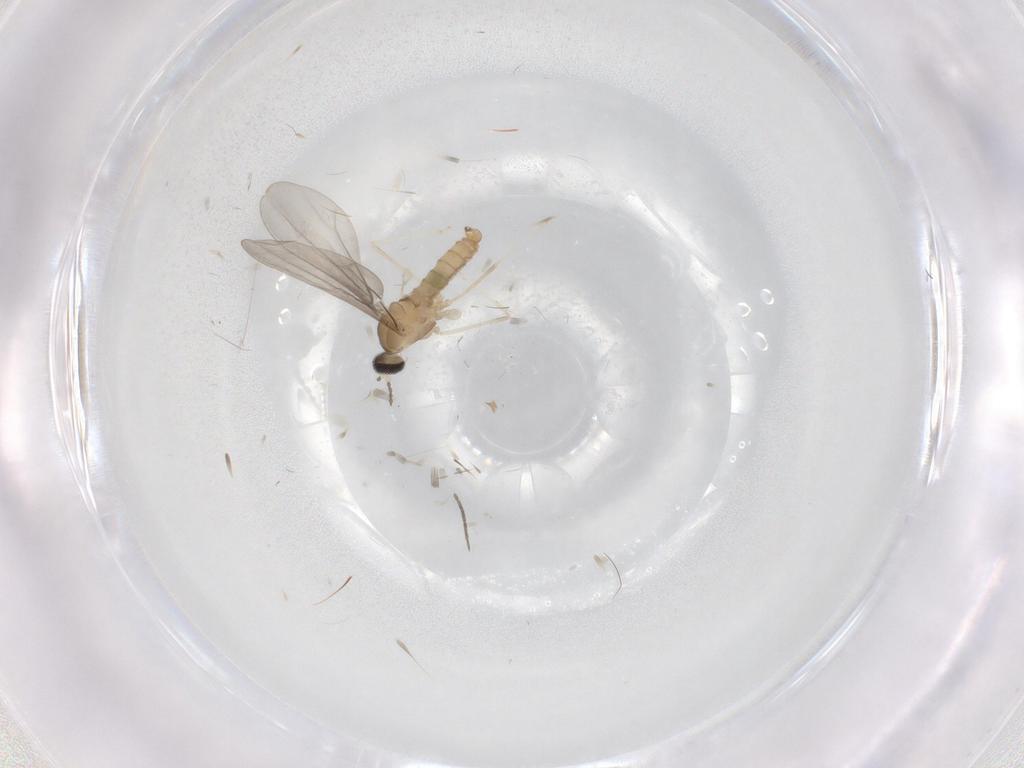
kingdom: Animalia
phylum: Arthropoda
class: Insecta
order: Diptera
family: Cecidomyiidae
